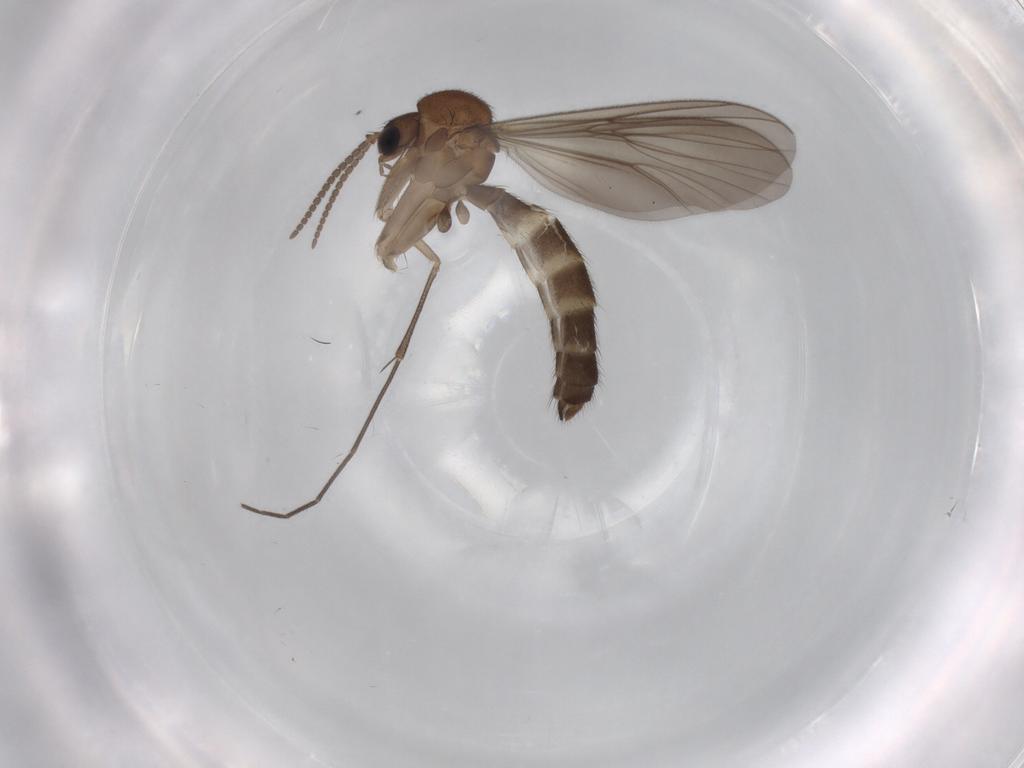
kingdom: Animalia
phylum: Arthropoda
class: Insecta
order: Diptera
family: Mycetophilidae
